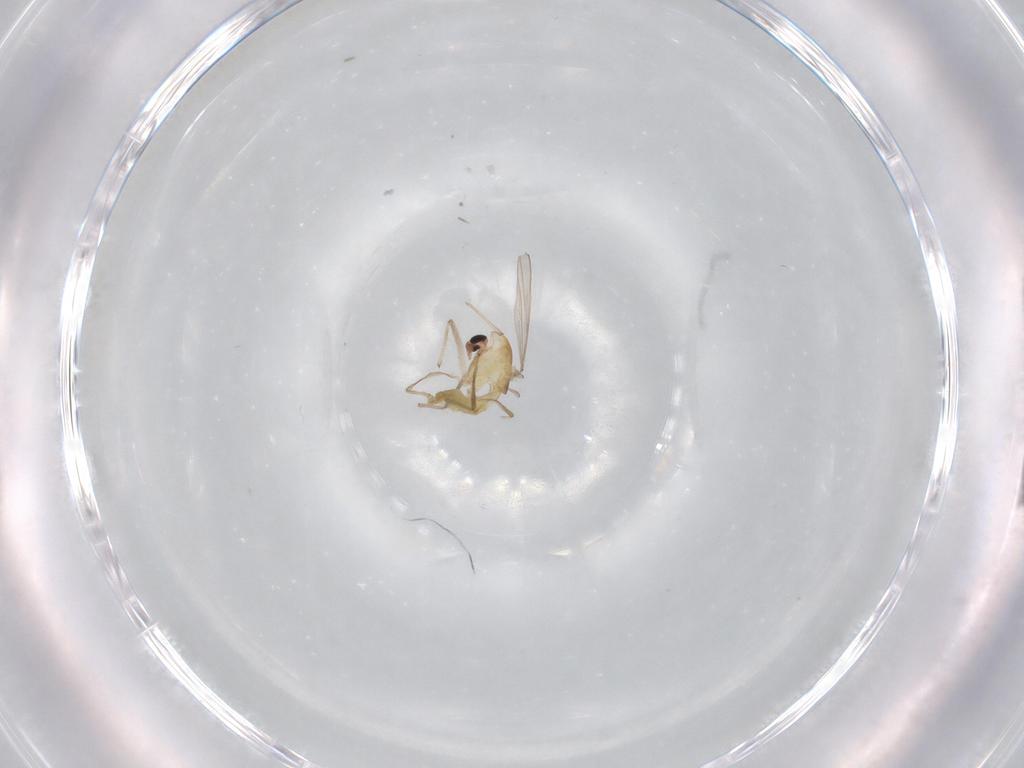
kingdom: Animalia
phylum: Arthropoda
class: Insecta
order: Diptera
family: Chironomidae
